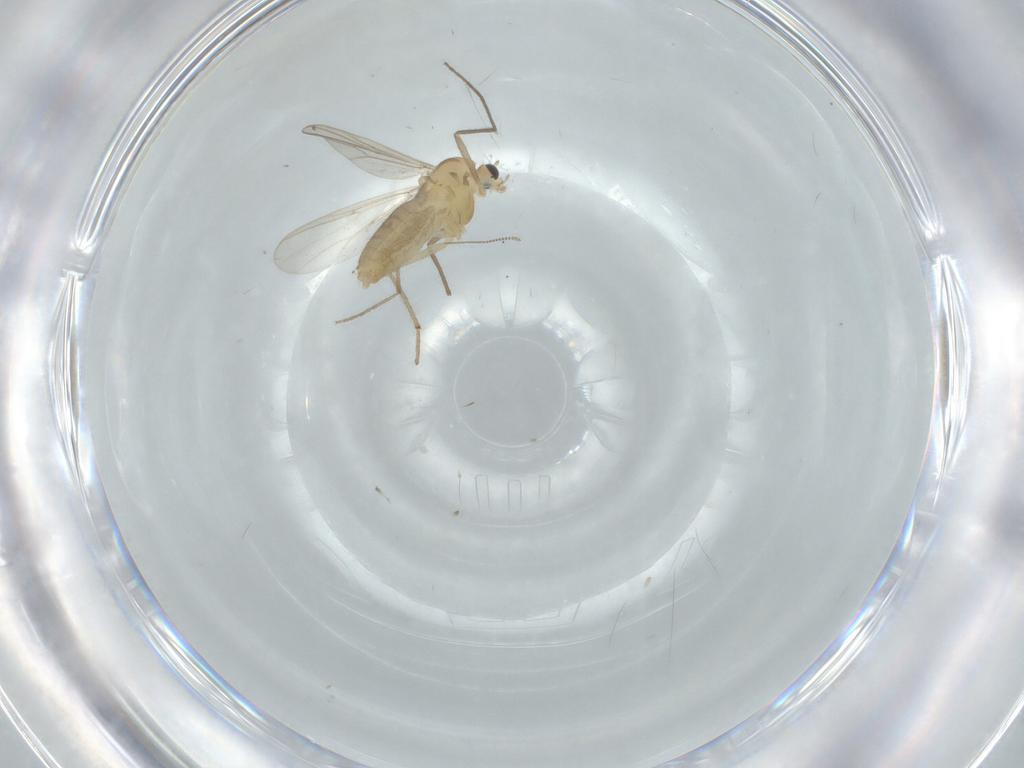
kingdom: Animalia
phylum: Arthropoda
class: Insecta
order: Diptera
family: Chironomidae
